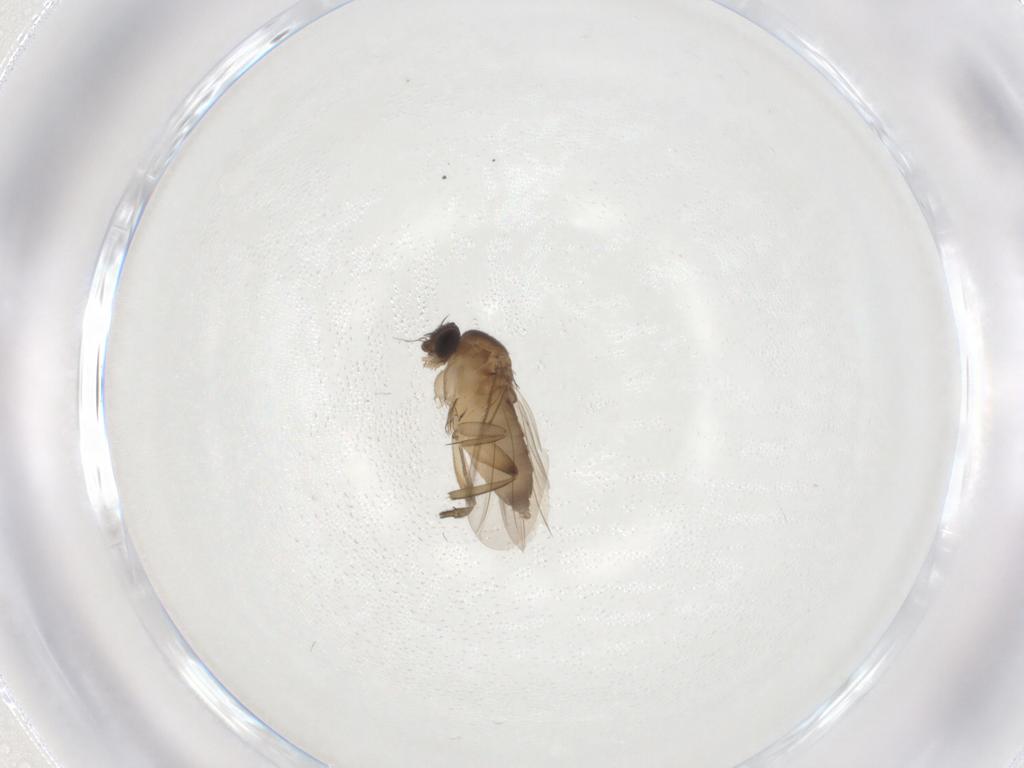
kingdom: Animalia
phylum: Arthropoda
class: Insecta
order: Diptera
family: Phoridae
